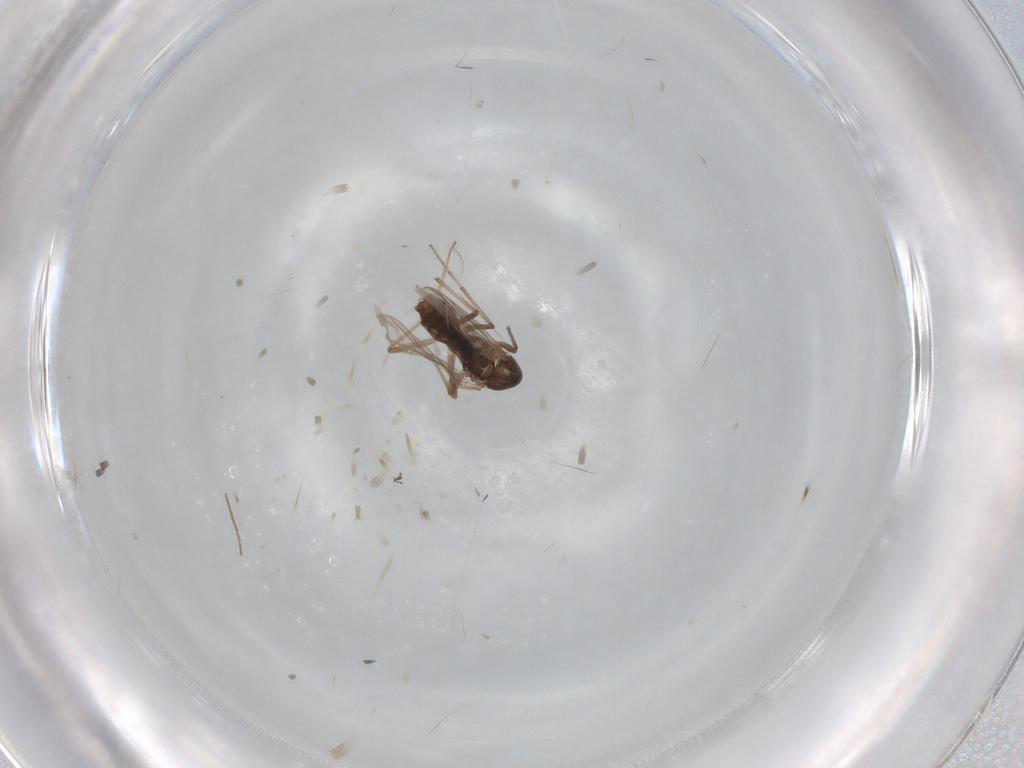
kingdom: Animalia
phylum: Arthropoda
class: Insecta
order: Diptera
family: Chironomidae
